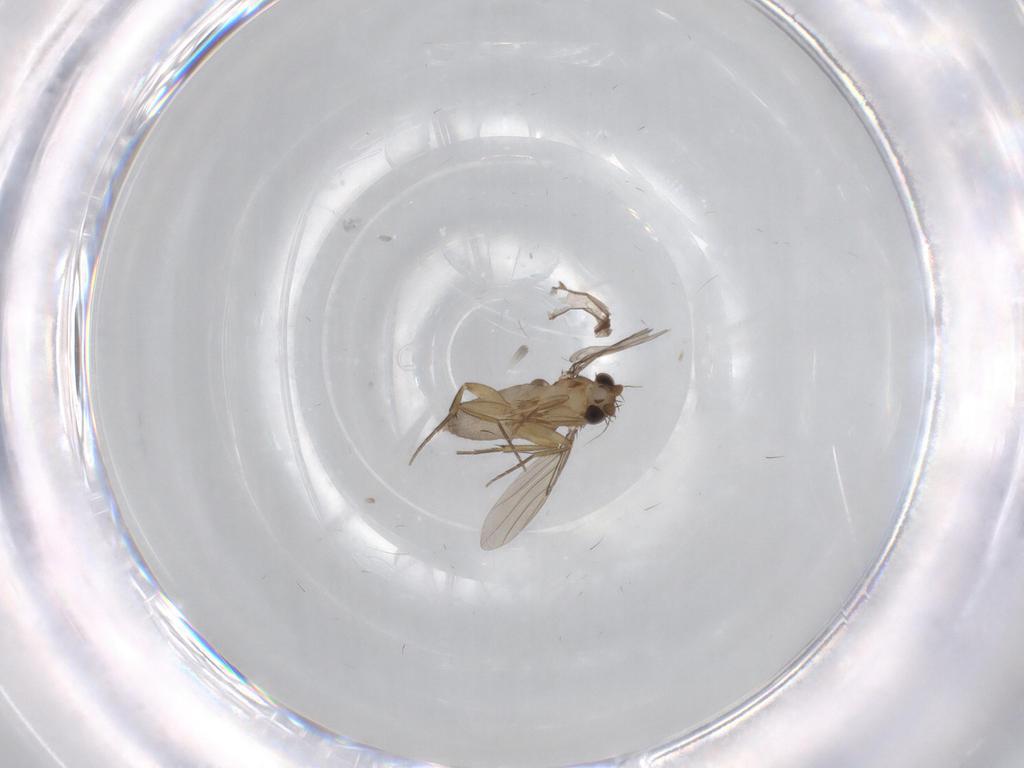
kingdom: Animalia
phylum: Arthropoda
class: Insecta
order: Diptera
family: Phoridae
